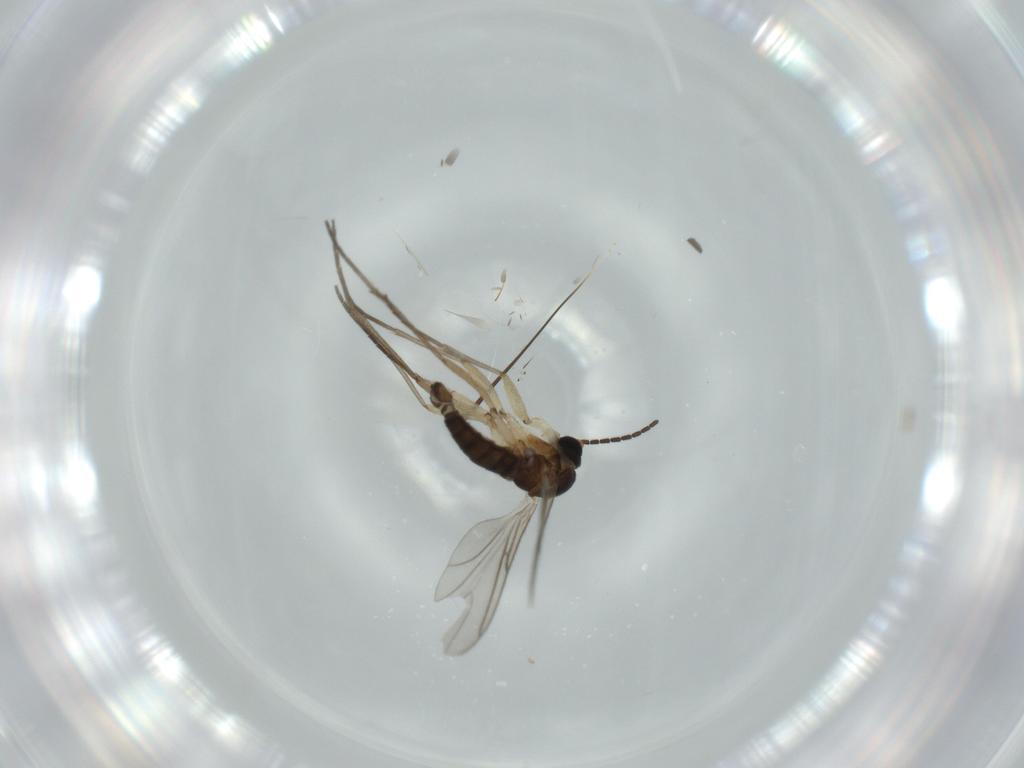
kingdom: Animalia
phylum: Arthropoda
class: Insecta
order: Diptera
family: Sciaridae
